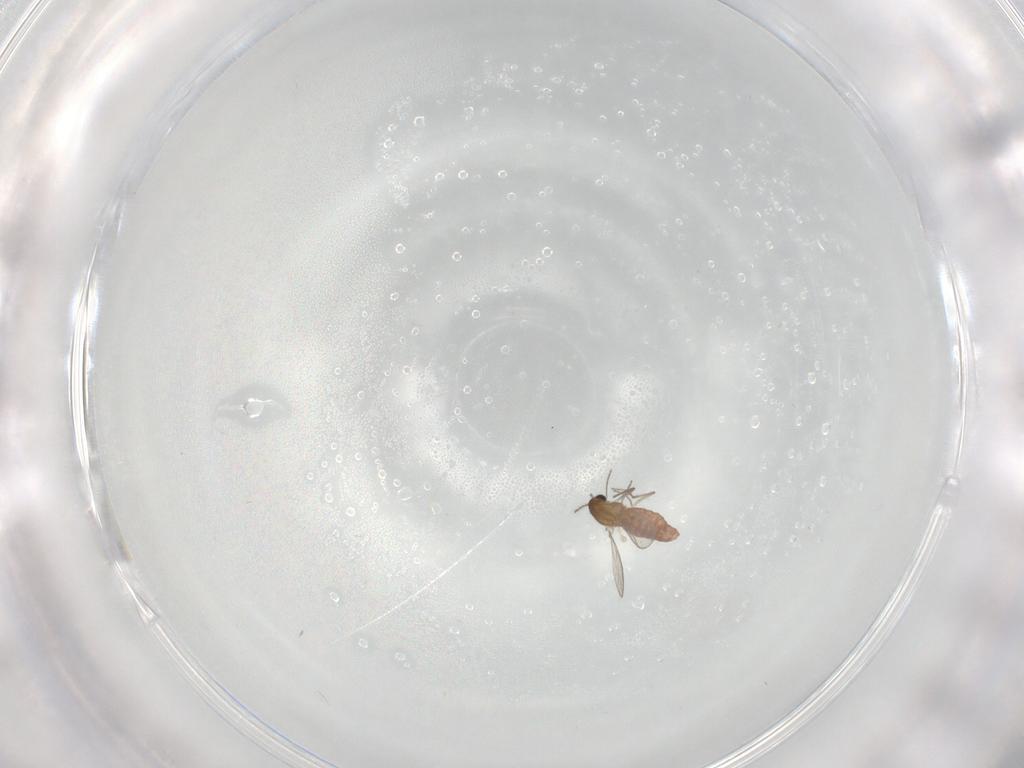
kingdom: Animalia
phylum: Arthropoda
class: Insecta
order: Diptera
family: Sciaridae
